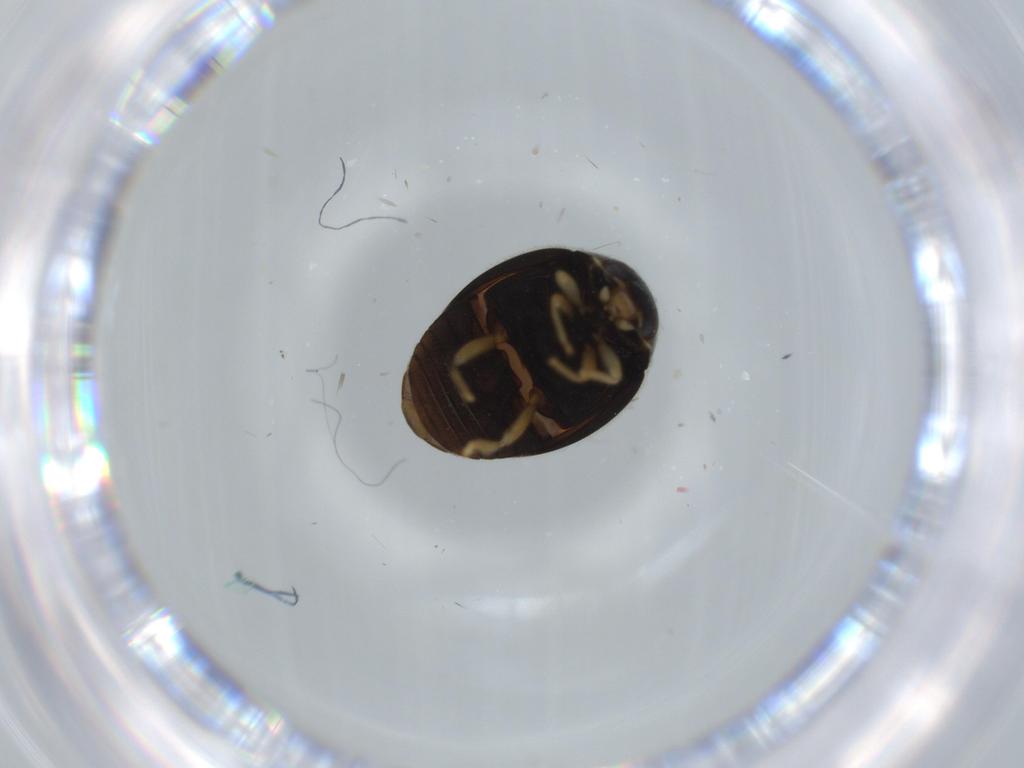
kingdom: Animalia
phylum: Arthropoda
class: Insecta
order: Coleoptera
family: Coccinellidae
